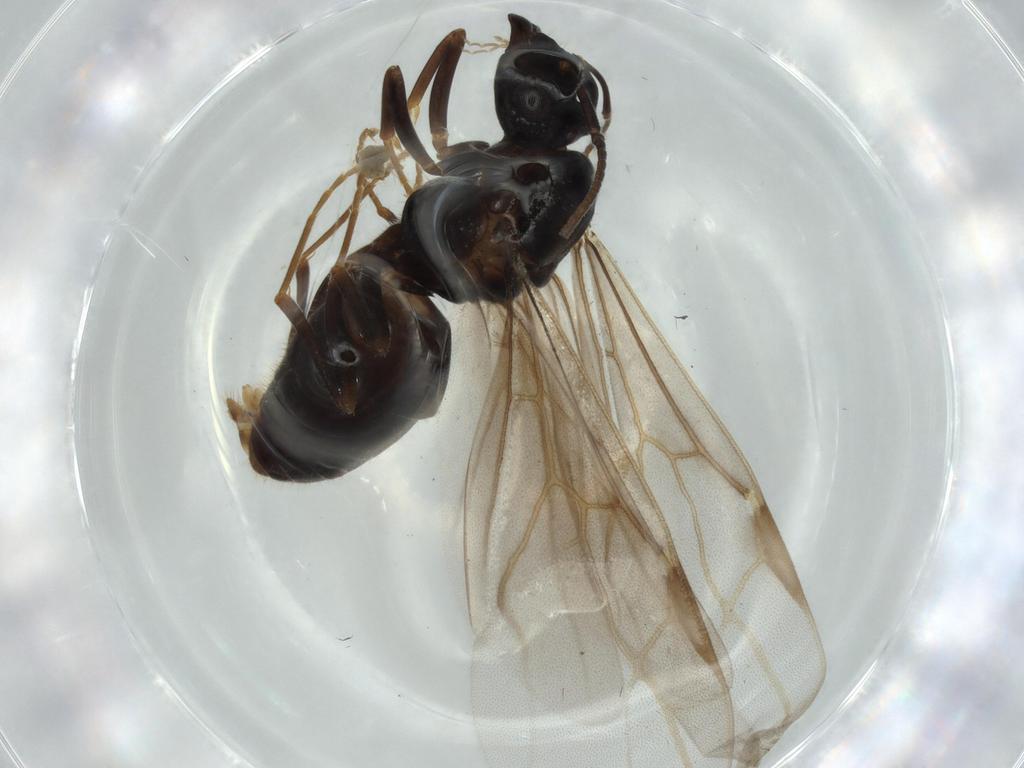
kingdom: Animalia
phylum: Arthropoda
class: Insecta
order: Hymenoptera
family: Formicidae
